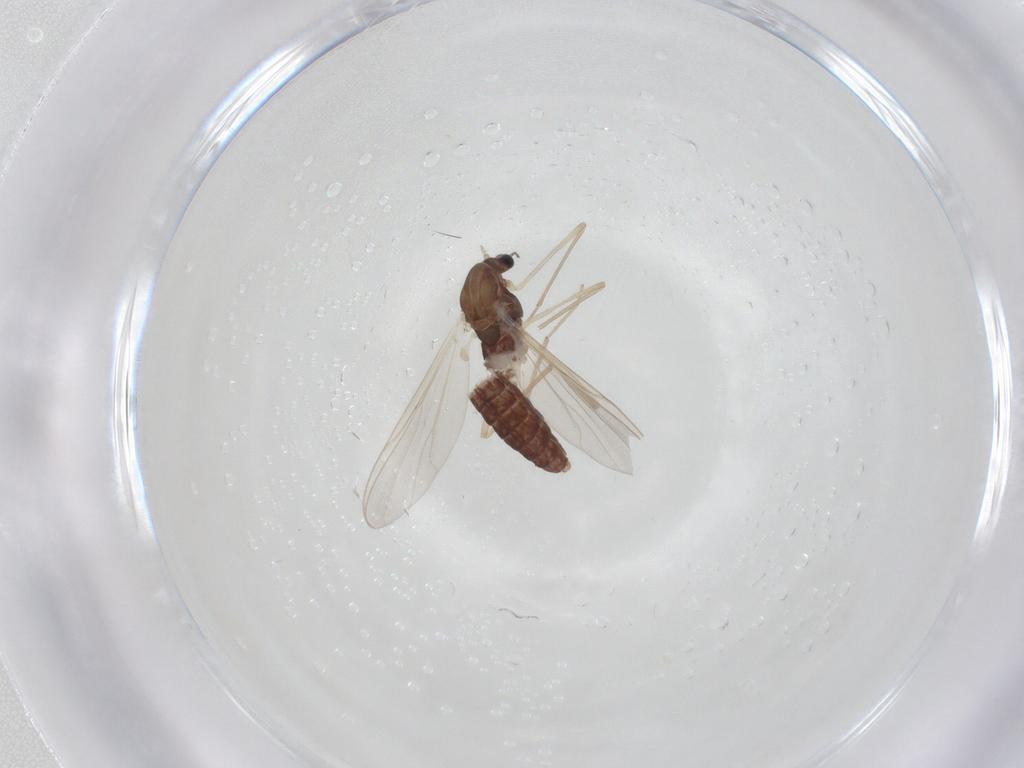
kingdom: Animalia
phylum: Arthropoda
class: Insecta
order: Diptera
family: Chironomidae
